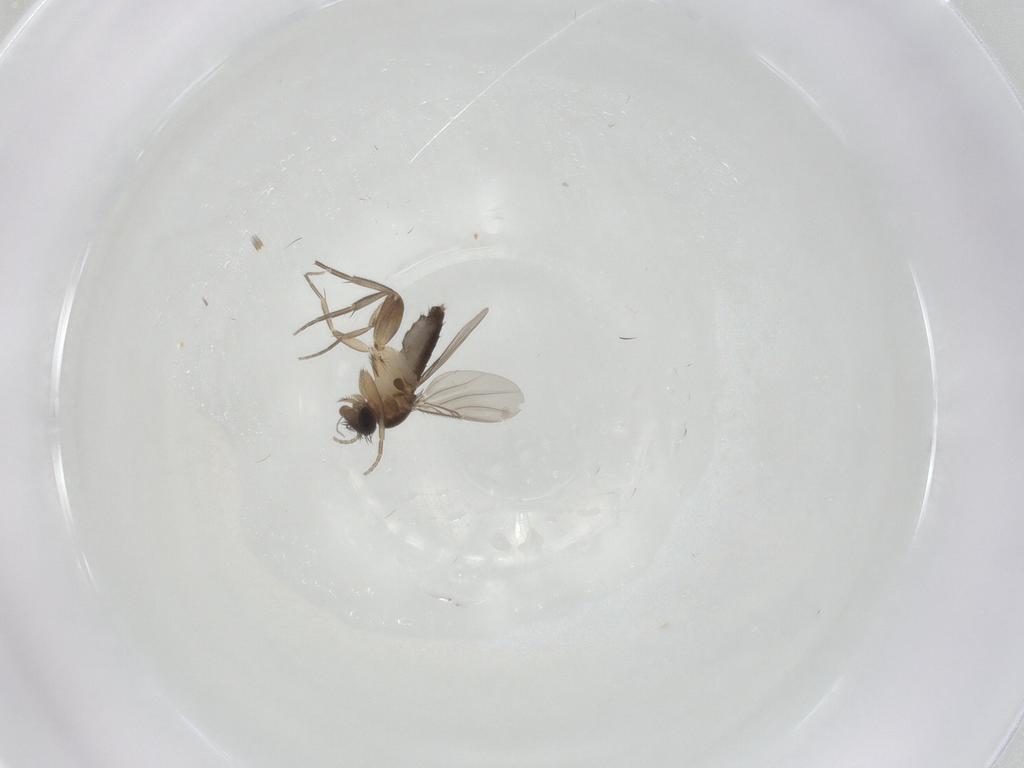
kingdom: Animalia
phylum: Arthropoda
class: Insecta
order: Diptera
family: Phoridae
